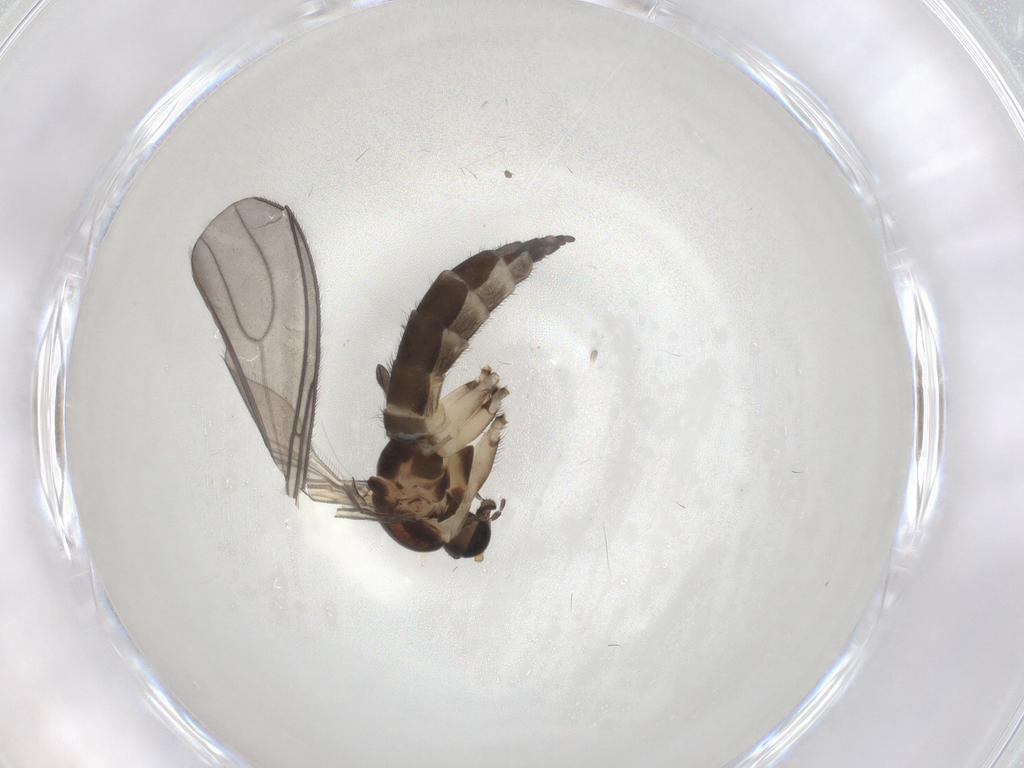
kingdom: Animalia
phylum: Arthropoda
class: Insecta
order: Diptera
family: Sciaridae
